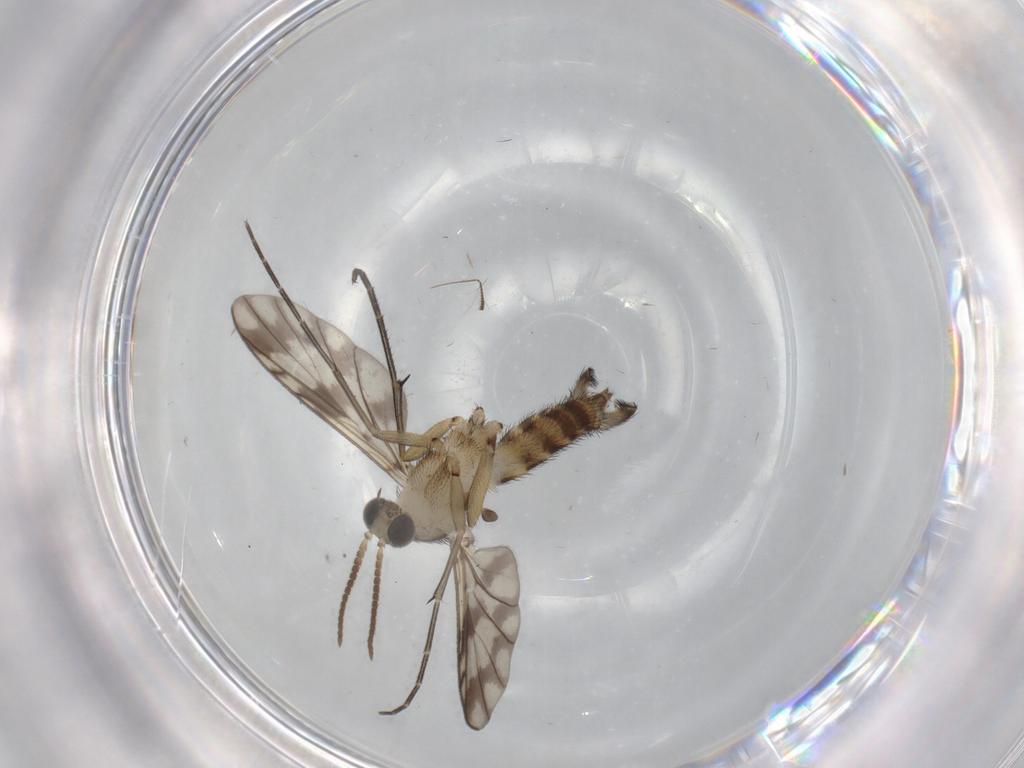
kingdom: Animalia
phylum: Arthropoda
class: Insecta
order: Diptera
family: Keroplatidae
